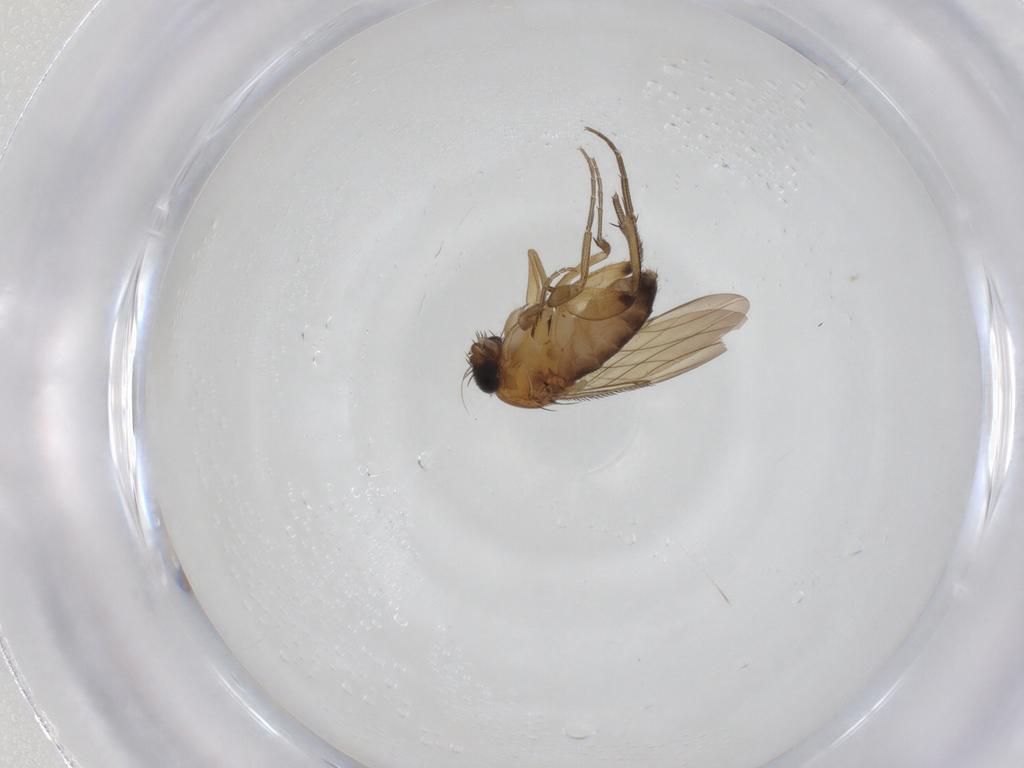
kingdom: Animalia
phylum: Arthropoda
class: Insecta
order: Diptera
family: Phoridae
